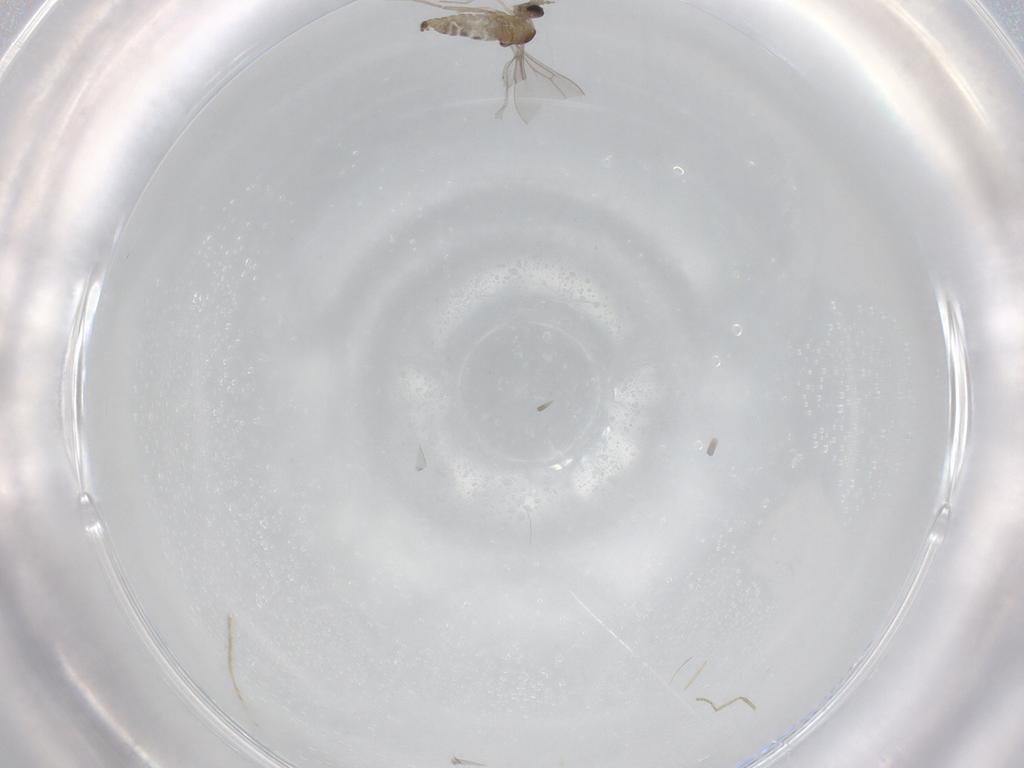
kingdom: Animalia
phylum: Arthropoda
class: Insecta
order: Diptera
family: Cecidomyiidae
